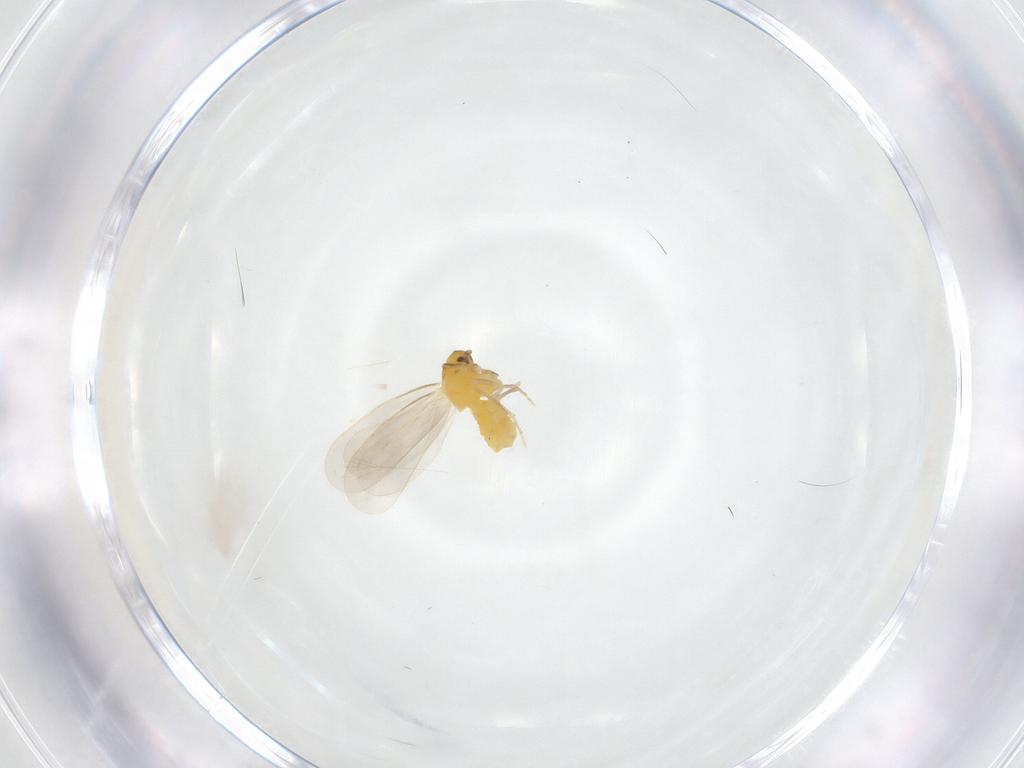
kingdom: Animalia
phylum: Arthropoda
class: Insecta
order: Hemiptera
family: Aleyrodidae
